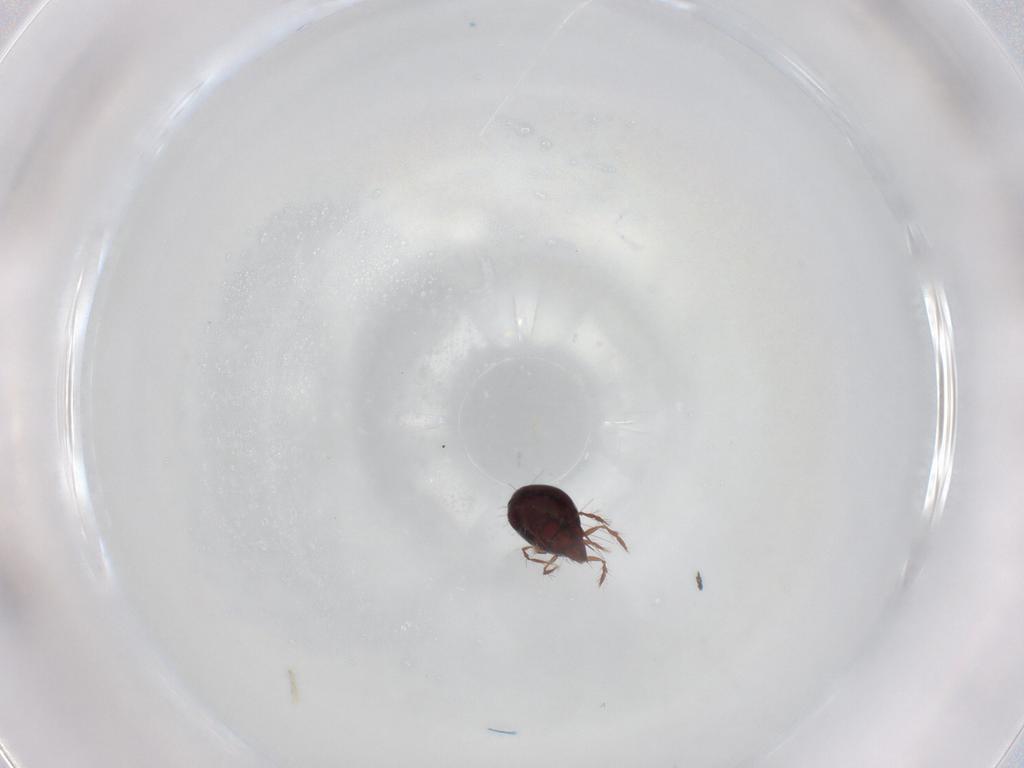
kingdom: Animalia
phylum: Arthropoda
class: Arachnida
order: Sarcoptiformes
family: Ceratoppiidae
